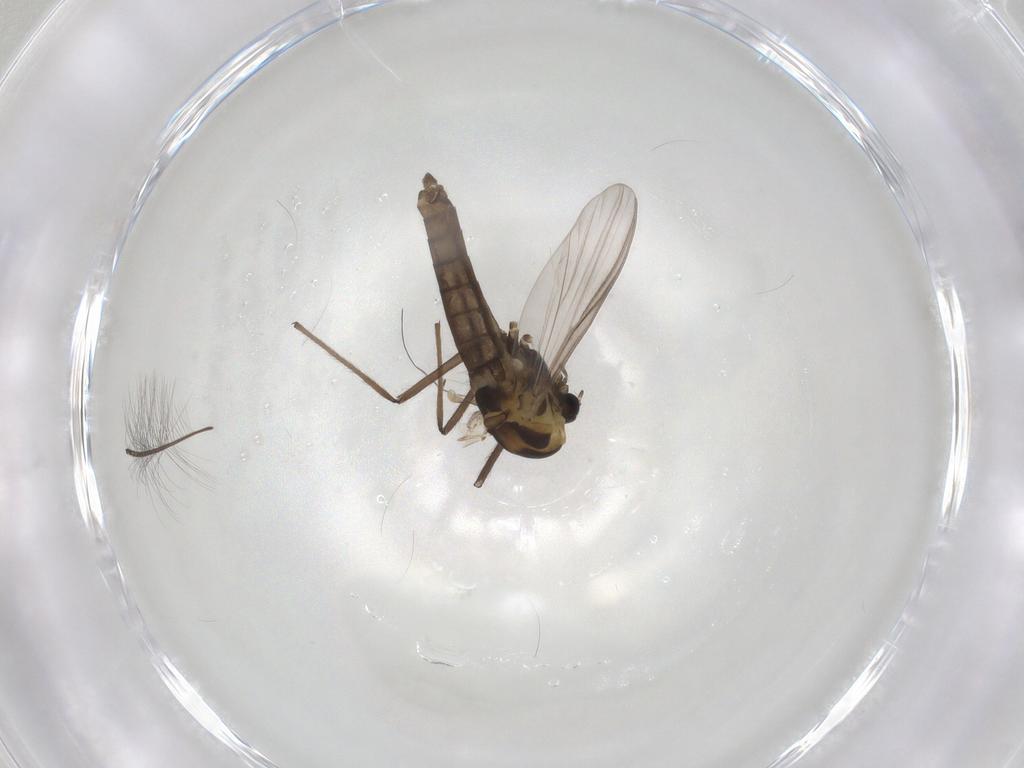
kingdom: Animalia
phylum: Arthropoda
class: Insecta
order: Diptera
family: Chironomidae
